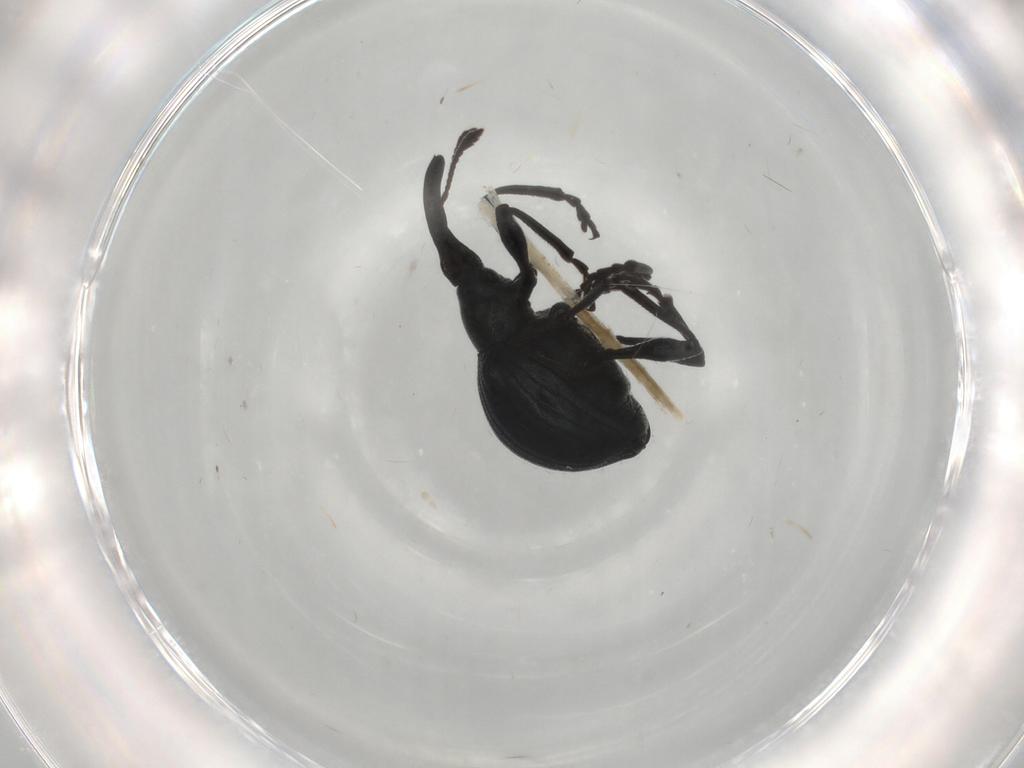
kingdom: Animalia
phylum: Arthropoda
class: Insecta
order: Coleoptera
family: Apionidae
